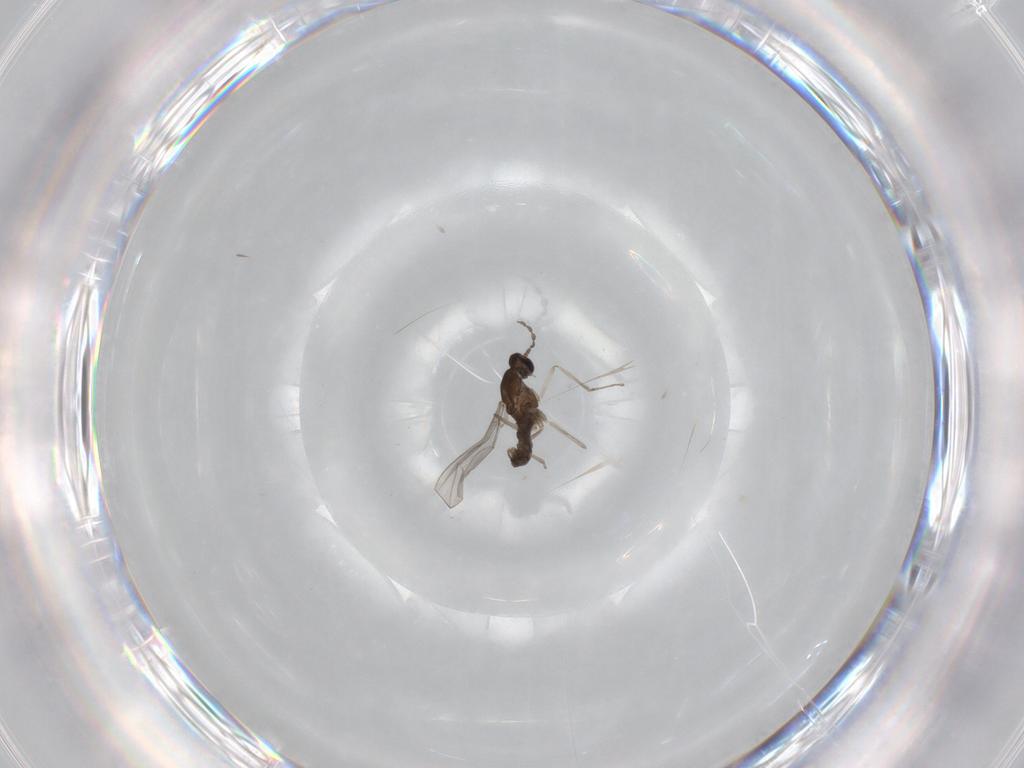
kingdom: Animalia
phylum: Arthropoda
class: Insecta
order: Diptera
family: Cecidomyiidae
